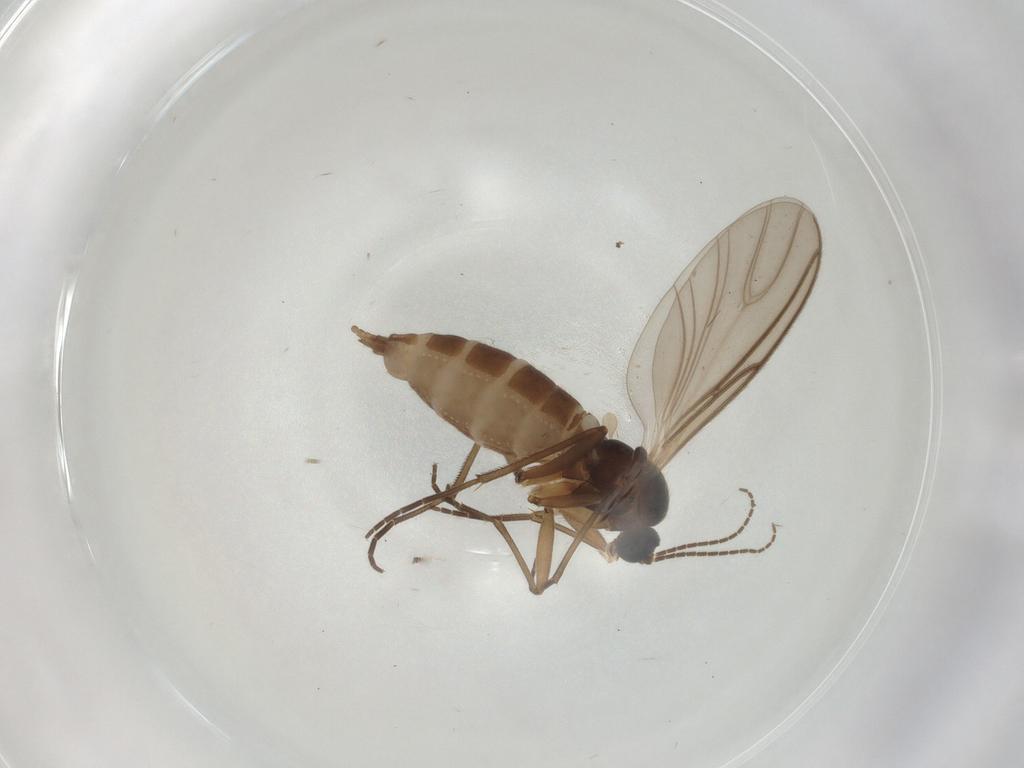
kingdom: Animalia
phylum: Arthropoda
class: Insecta
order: Diptera
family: Sciaridae
